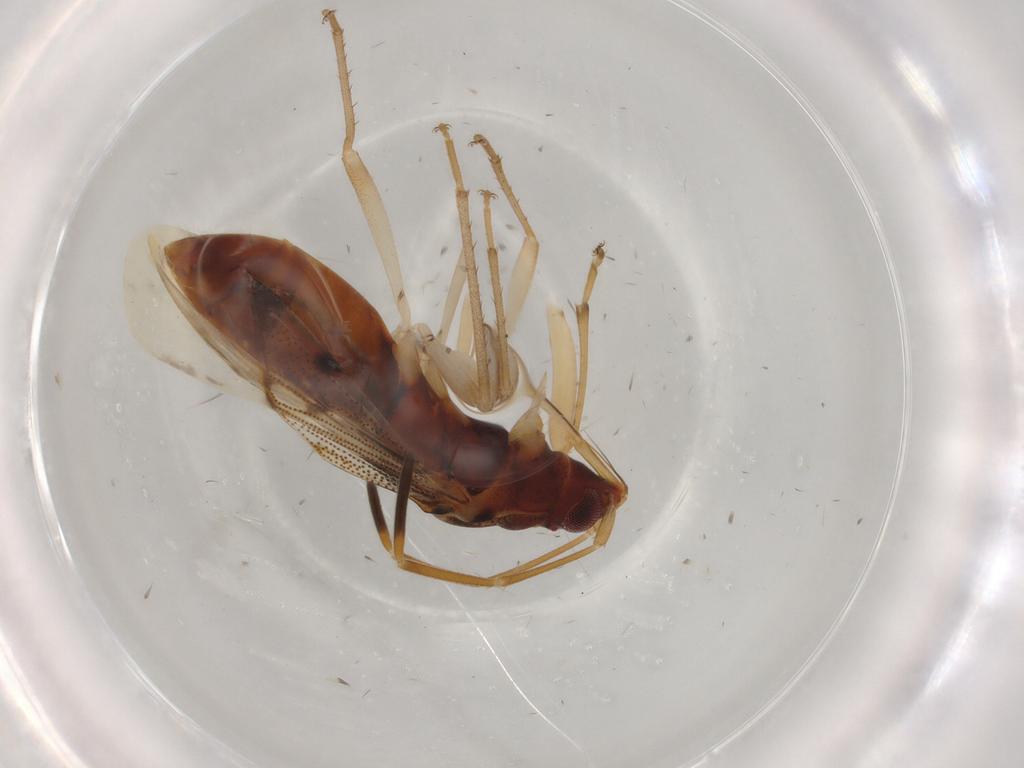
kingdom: Animalia
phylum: Arthropoda
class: Insecta
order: Hemiptera
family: Rhyparochromidae
